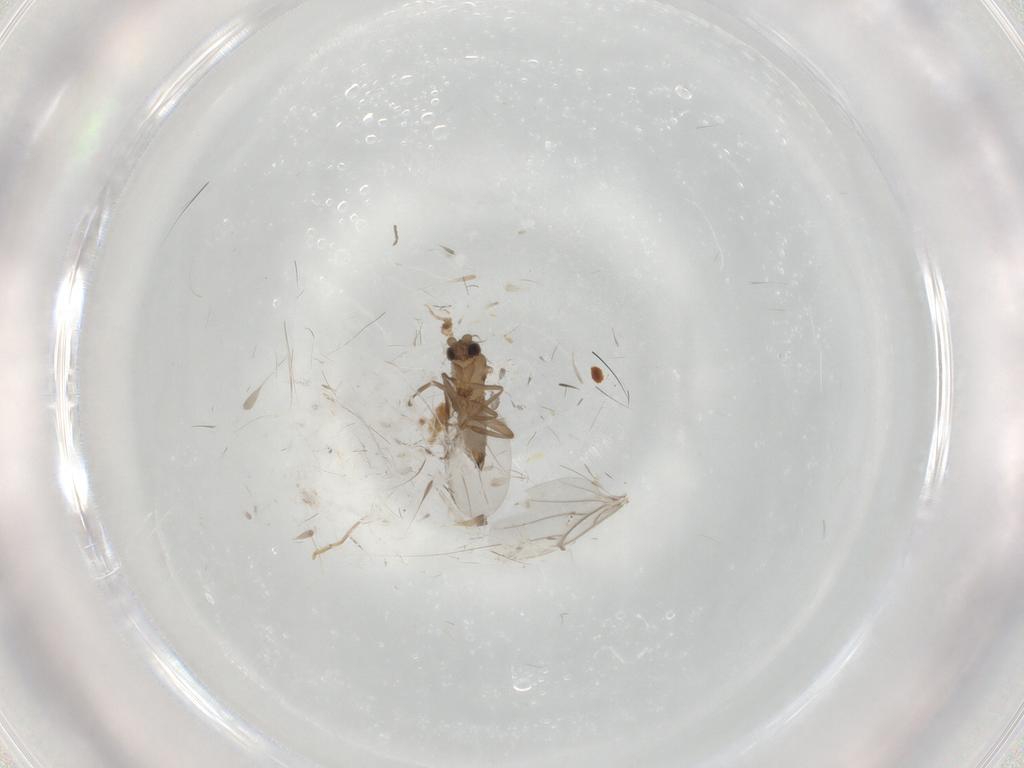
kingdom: Animalia
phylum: Arthropoda
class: Insecta
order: Diptera
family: Cecidomyiidae
